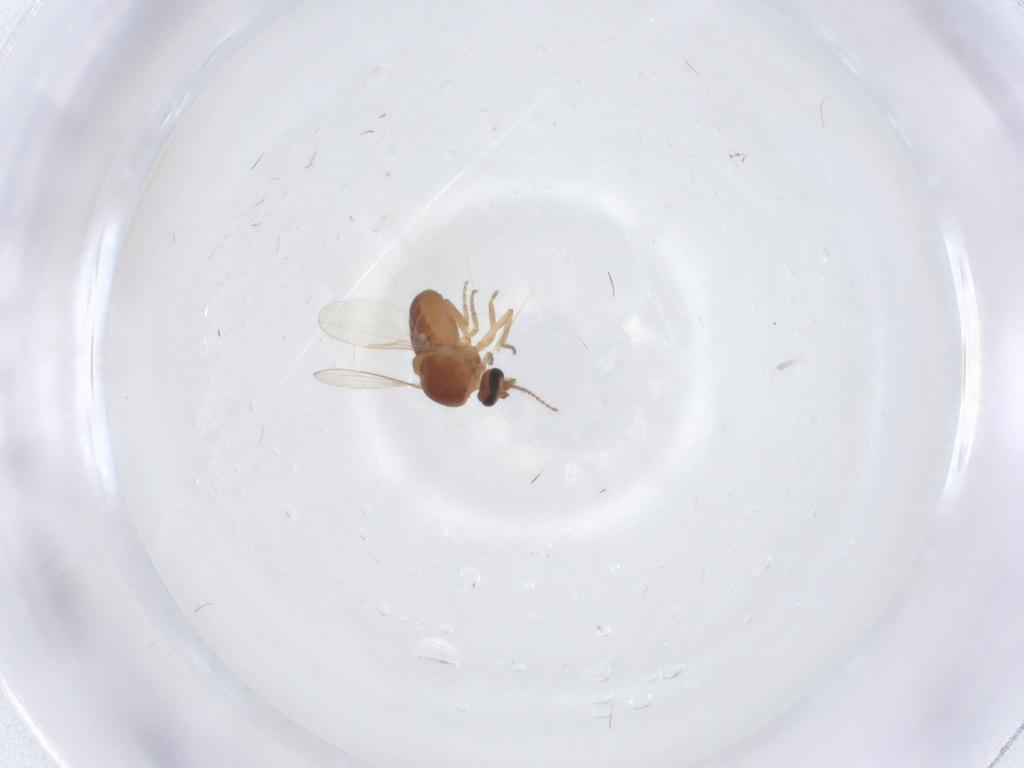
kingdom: Animalia
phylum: Arthropoda
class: Insecta
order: Diptera
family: Ceratopogonidae
